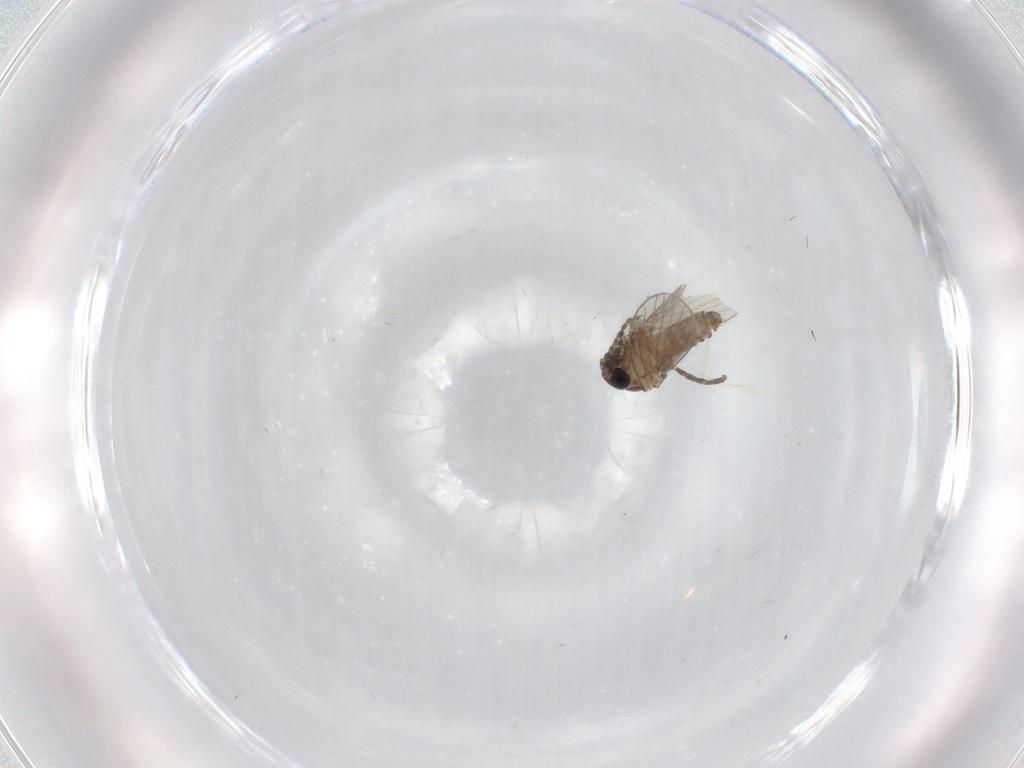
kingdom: Animalia
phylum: Arthropoda
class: Insecta
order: Diptera
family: Psychodidae
